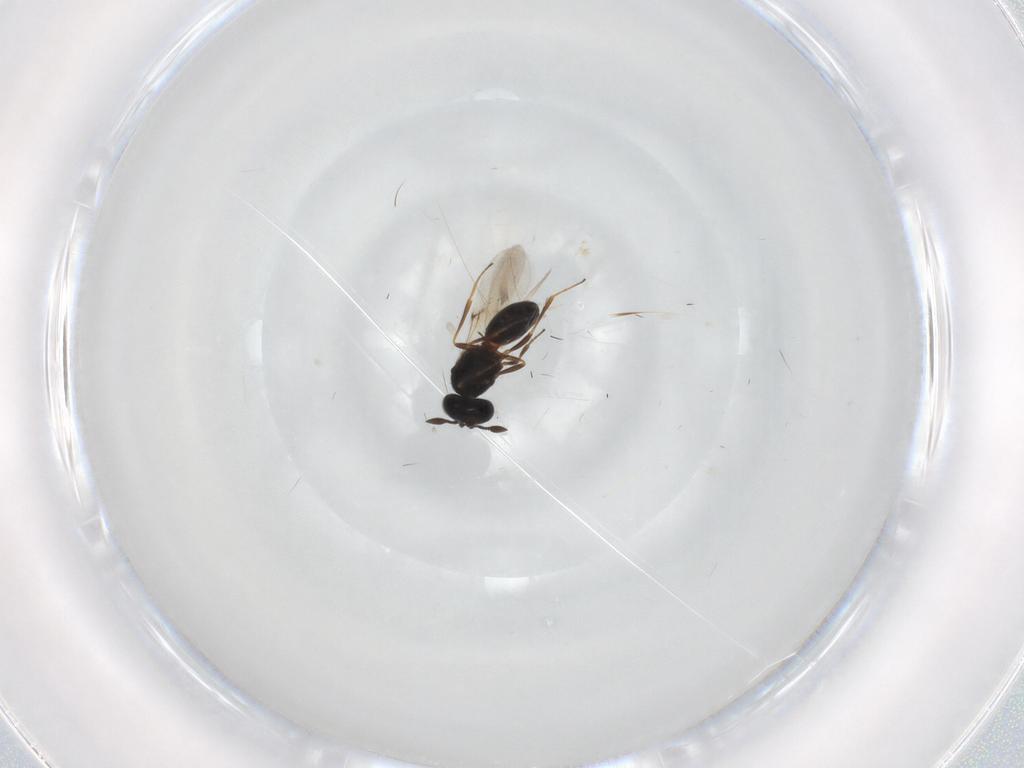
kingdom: Animalia
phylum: Arthropoda
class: Insecta
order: Hymenoptera
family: Scelionidae
